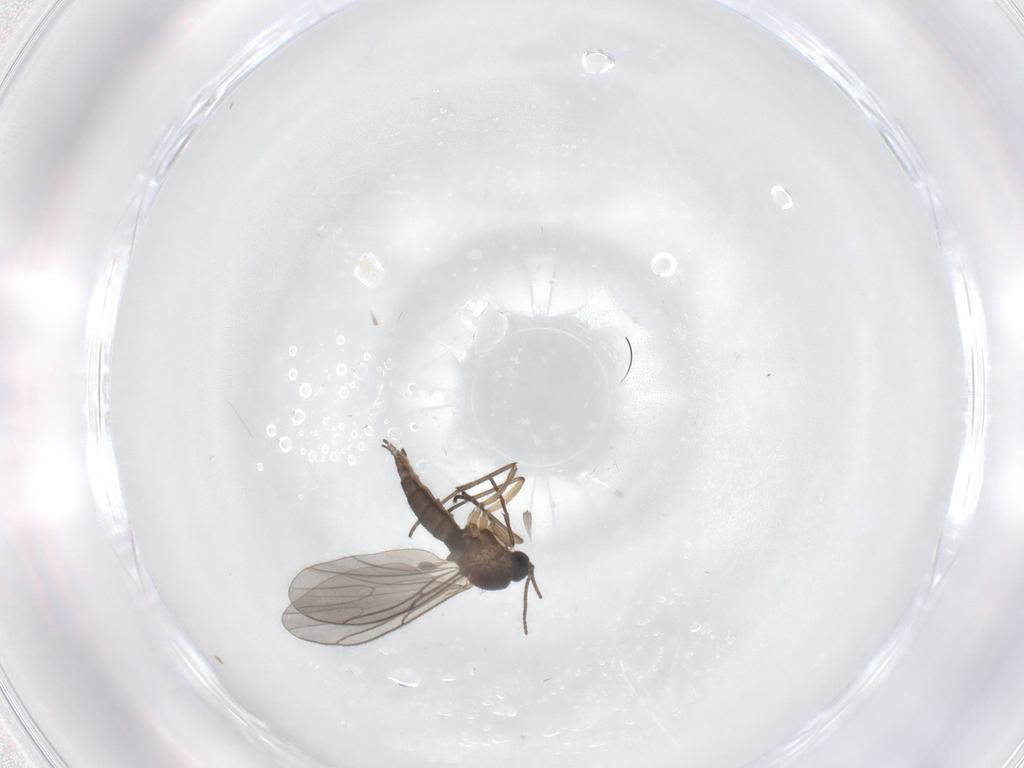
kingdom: Animalia
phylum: Arthropoda
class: Insecta
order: Diptera
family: Sciaridae
